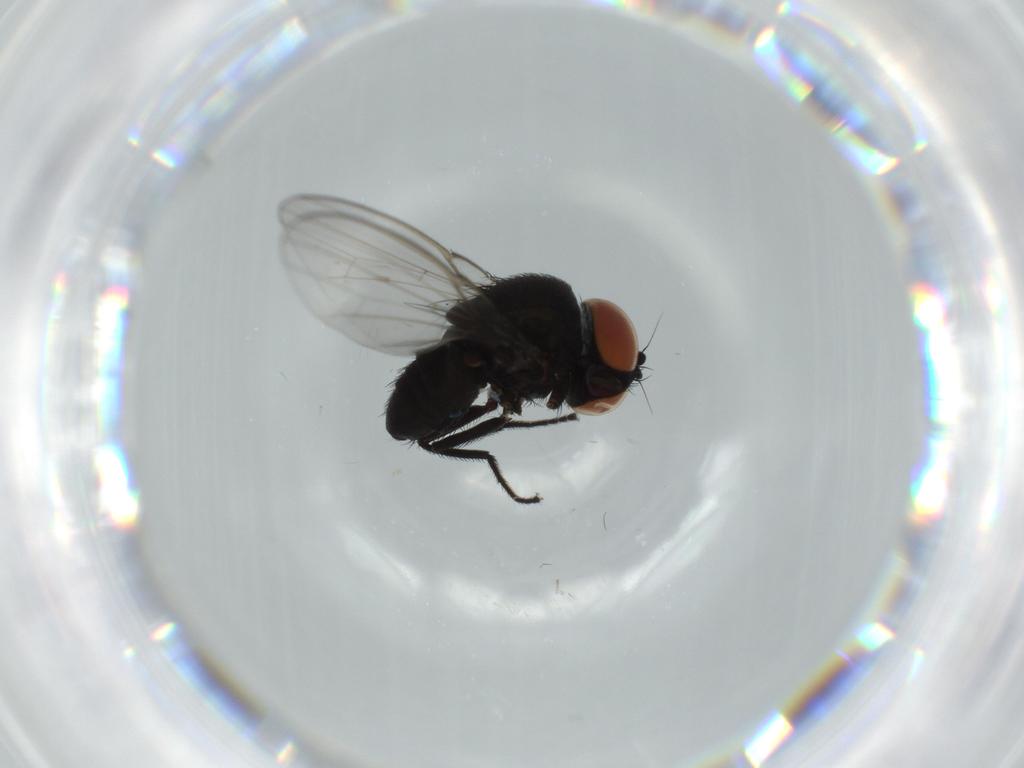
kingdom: Animalia
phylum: Arthropoda
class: Insecta
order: Diptera
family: Milichiidae
